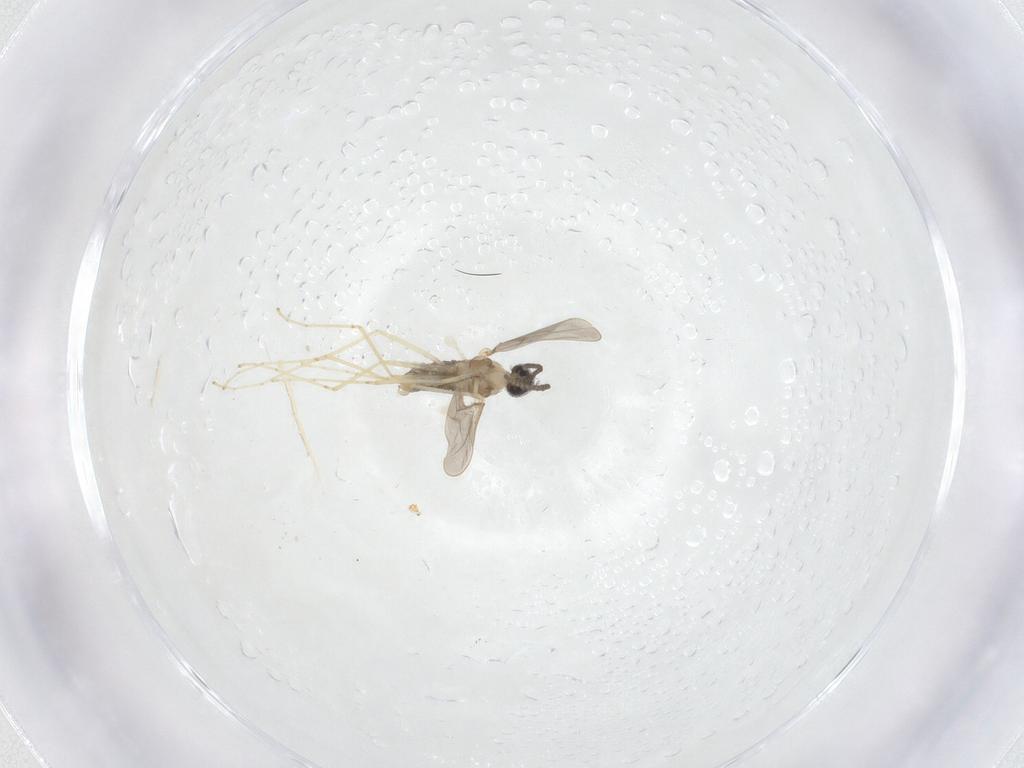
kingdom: Animalia
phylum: Arthropoda
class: Insecta
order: Diptera
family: Cecidomyiidae
